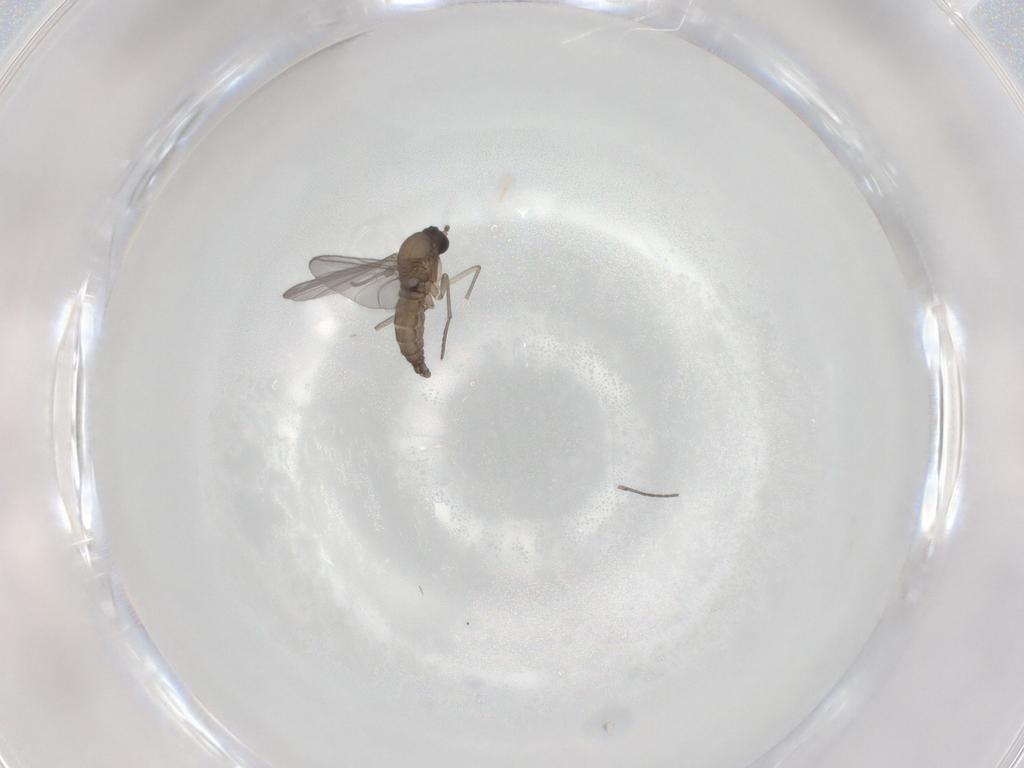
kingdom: Animalia
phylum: Arthropoda
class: Insecta
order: Diptera
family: Sciaridae
